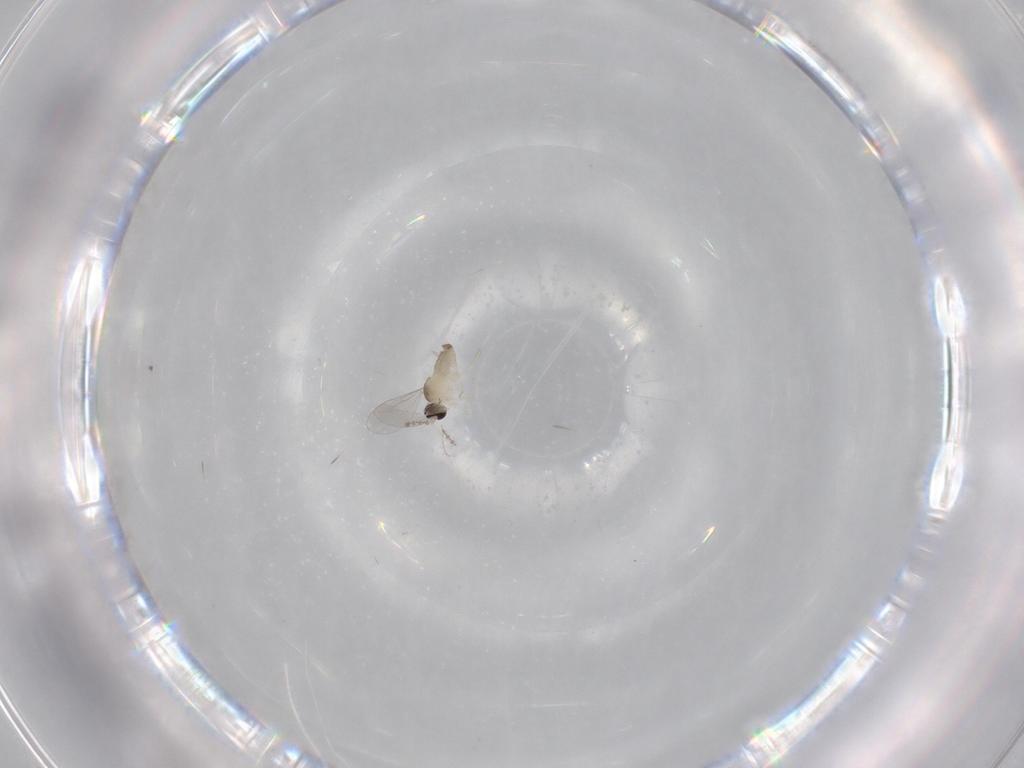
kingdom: Animalia
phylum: Arthropoda
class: Insecta
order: Diptera
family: Cecidomyiidae
